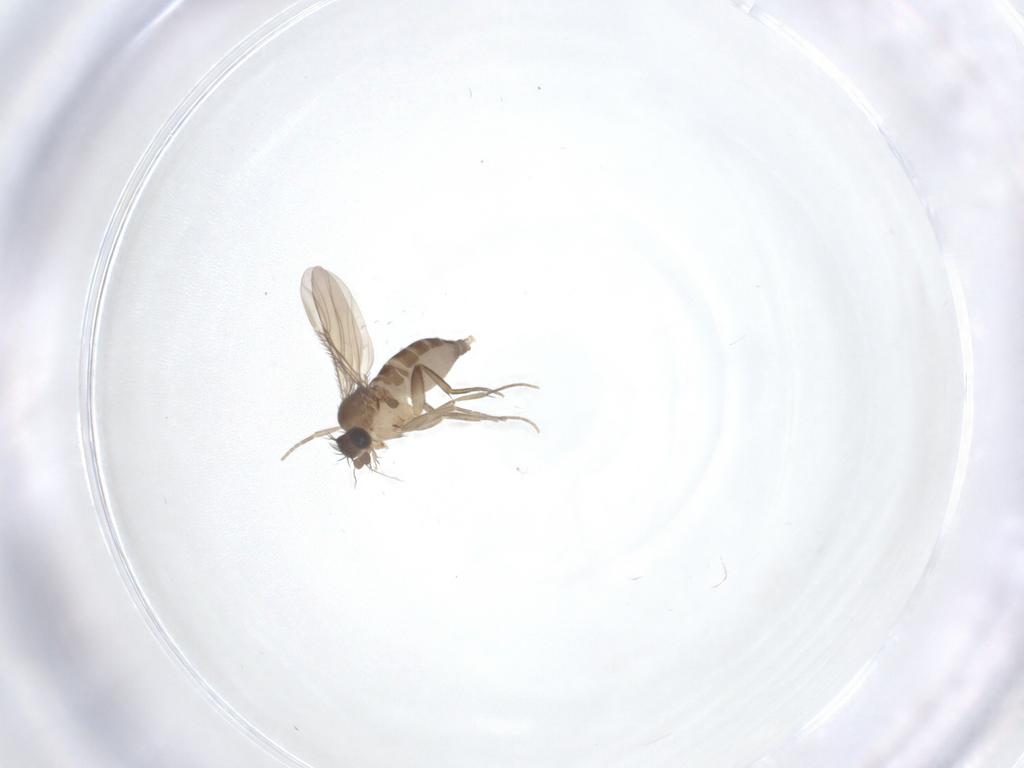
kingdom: Animalia
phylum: Arthropoda
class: Insecta
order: Diptera
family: Phoridae
